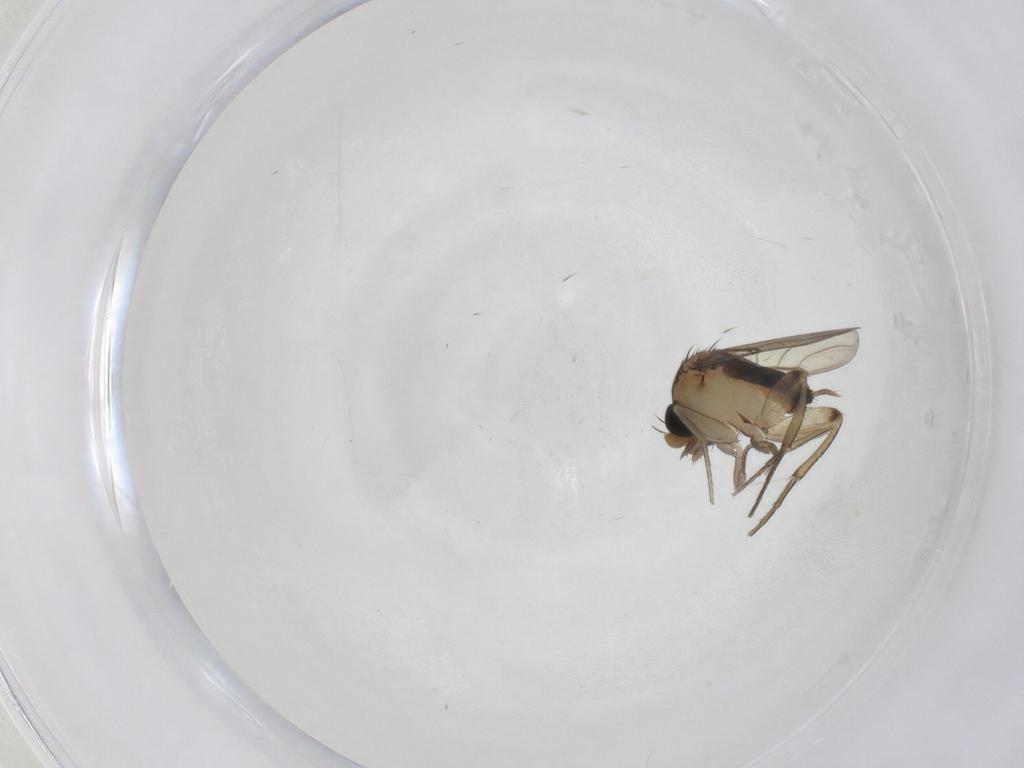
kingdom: Animalia
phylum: Arthropoda
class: Insecta
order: Diptera
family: Phoridae
